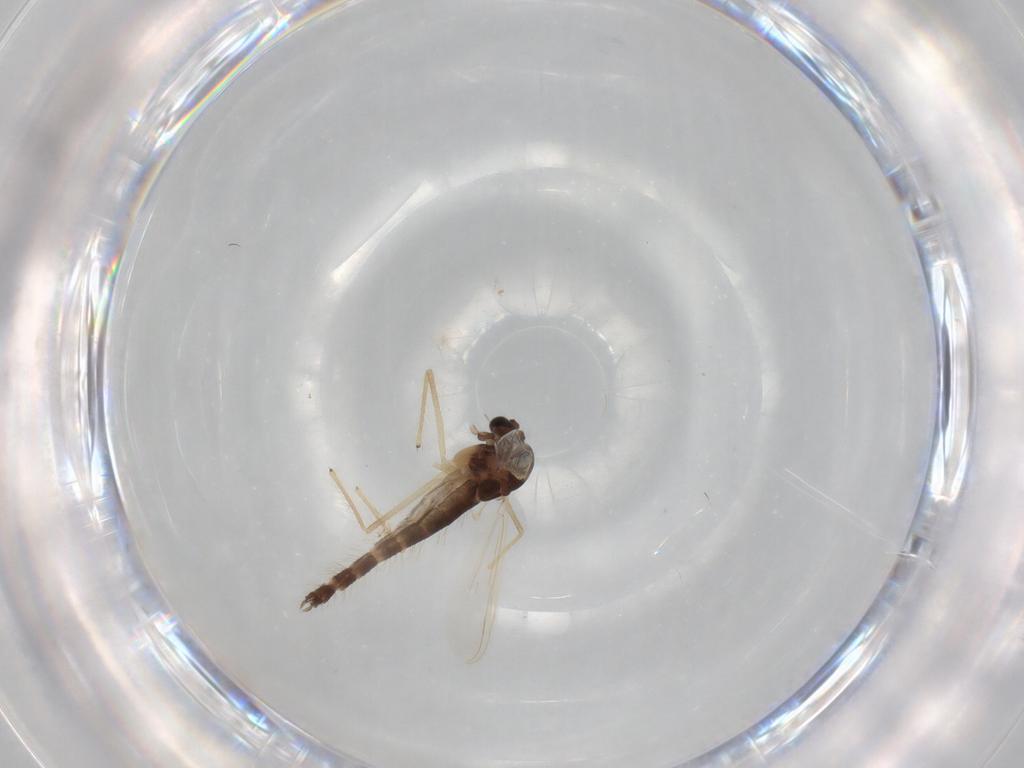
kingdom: Animalia
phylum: Arthropoda
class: Insecta
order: Diptera
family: Chironomidae
